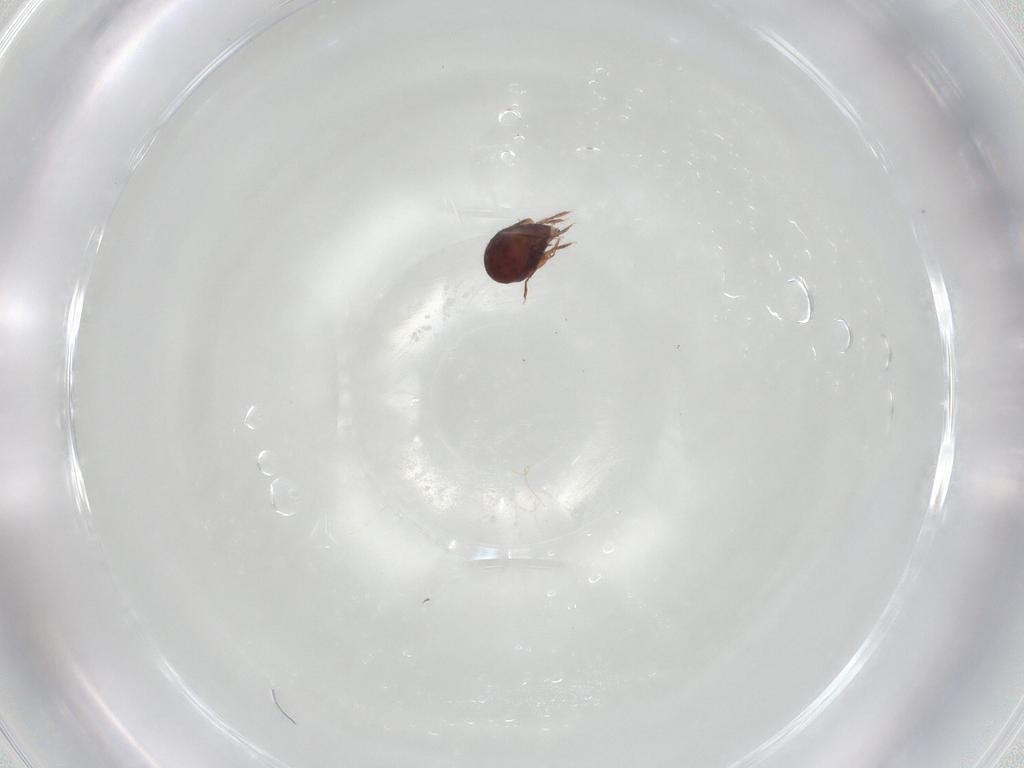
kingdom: Animalia
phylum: Arthropoda
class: Arachnida
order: Sarcoptiformes
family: Humerobatidae
